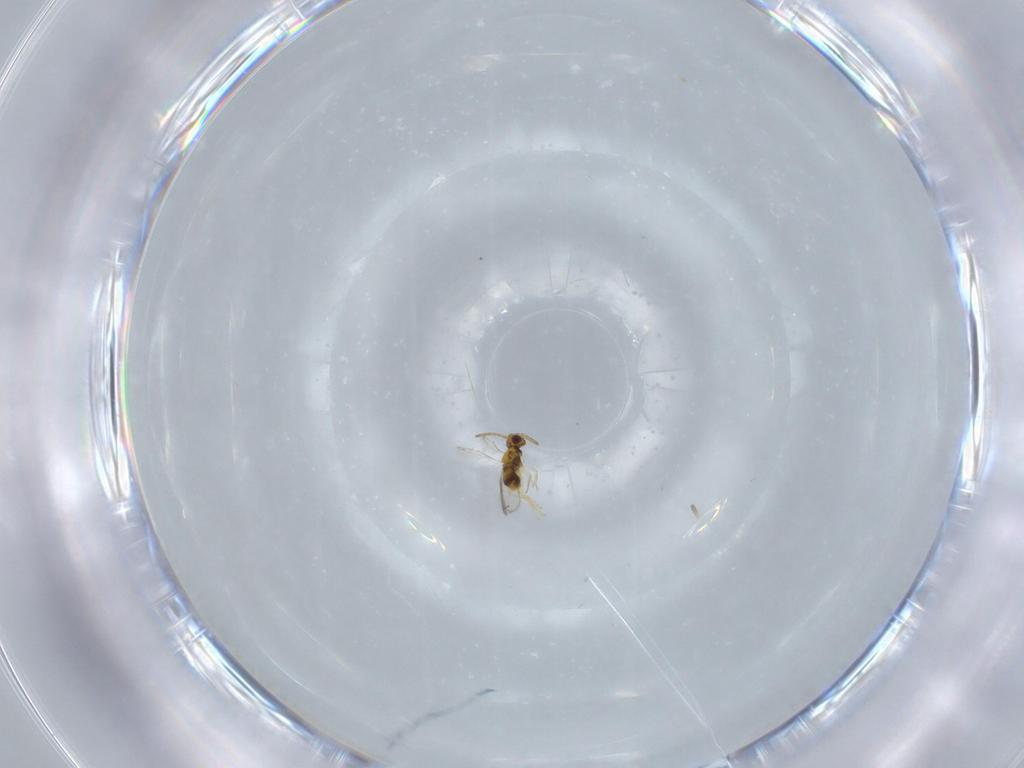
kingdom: Animalia
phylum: Arthropoda
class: Insecta
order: Hymenoptera
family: Aphelinidae
